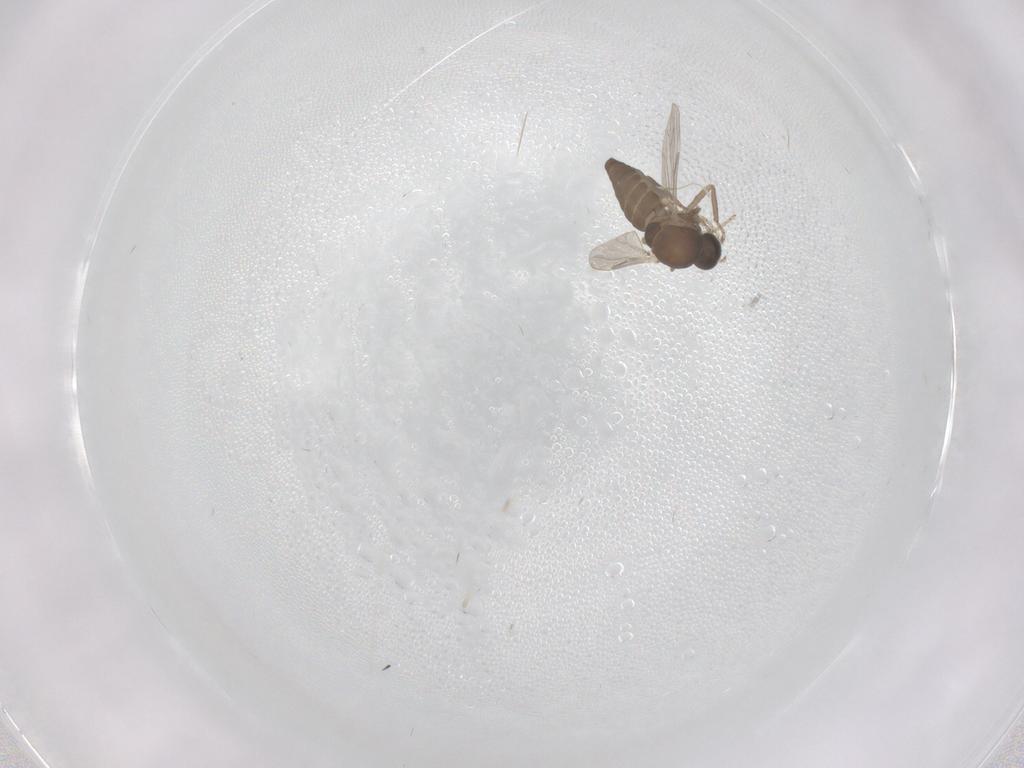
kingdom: Animalia
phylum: Arthropoda
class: Insecta
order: Diptera
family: Ceratopogonidae
